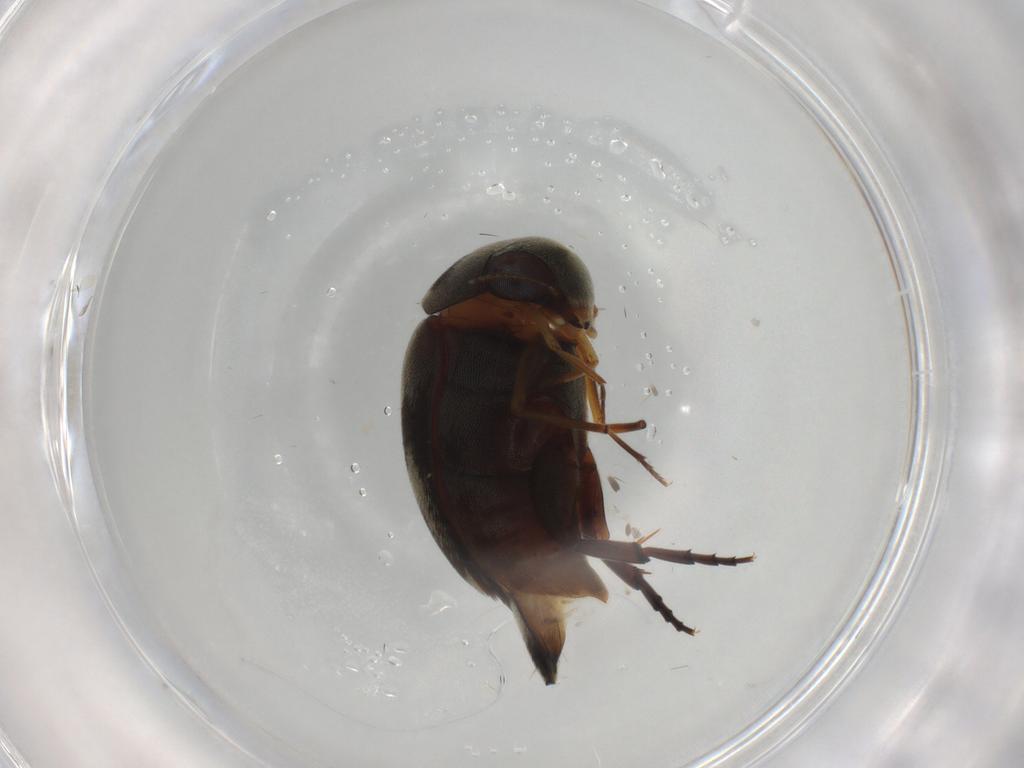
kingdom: Animalia
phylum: Arthropoda
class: Insecta
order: Coleoptera
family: Mordellidae
